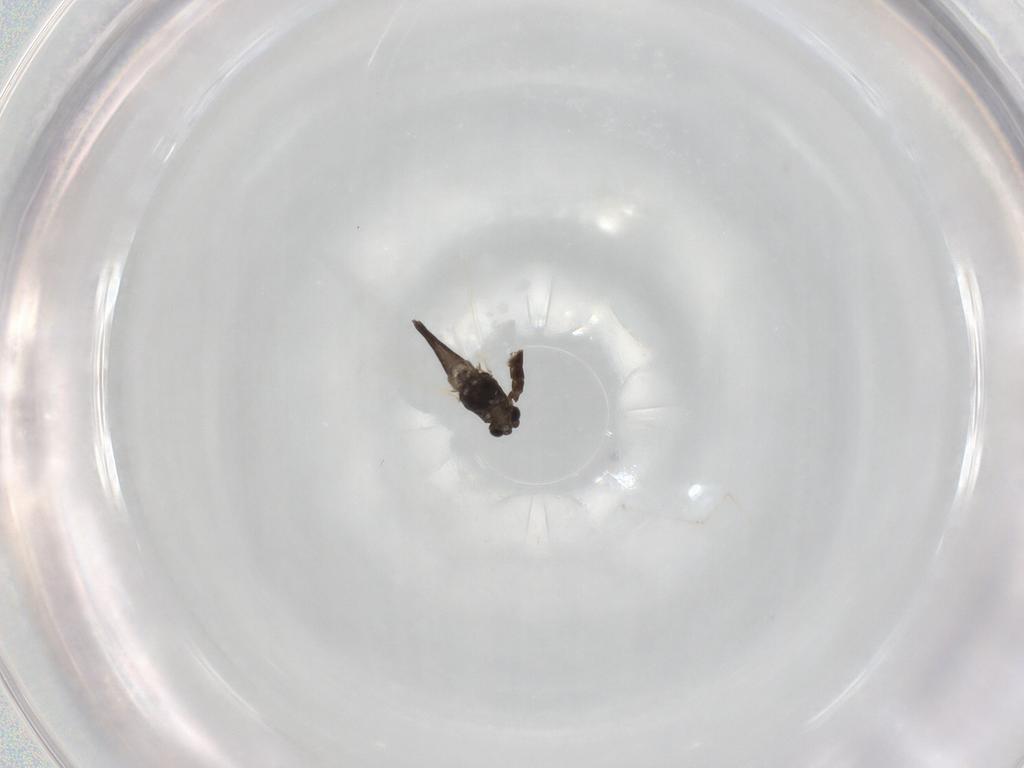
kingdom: Animalia
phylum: Arthropoda
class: Insecta
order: Diptera
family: Chironomidae
